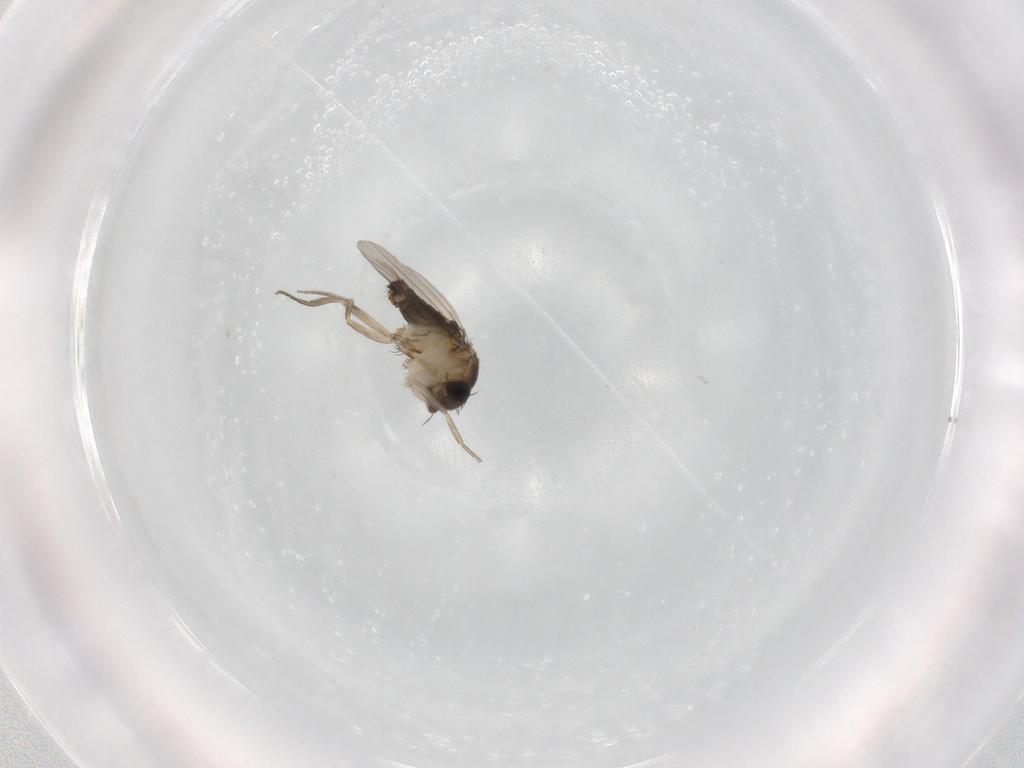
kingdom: Animalia
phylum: Arthropoda
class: Insecta
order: Diptera
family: Phoridae
